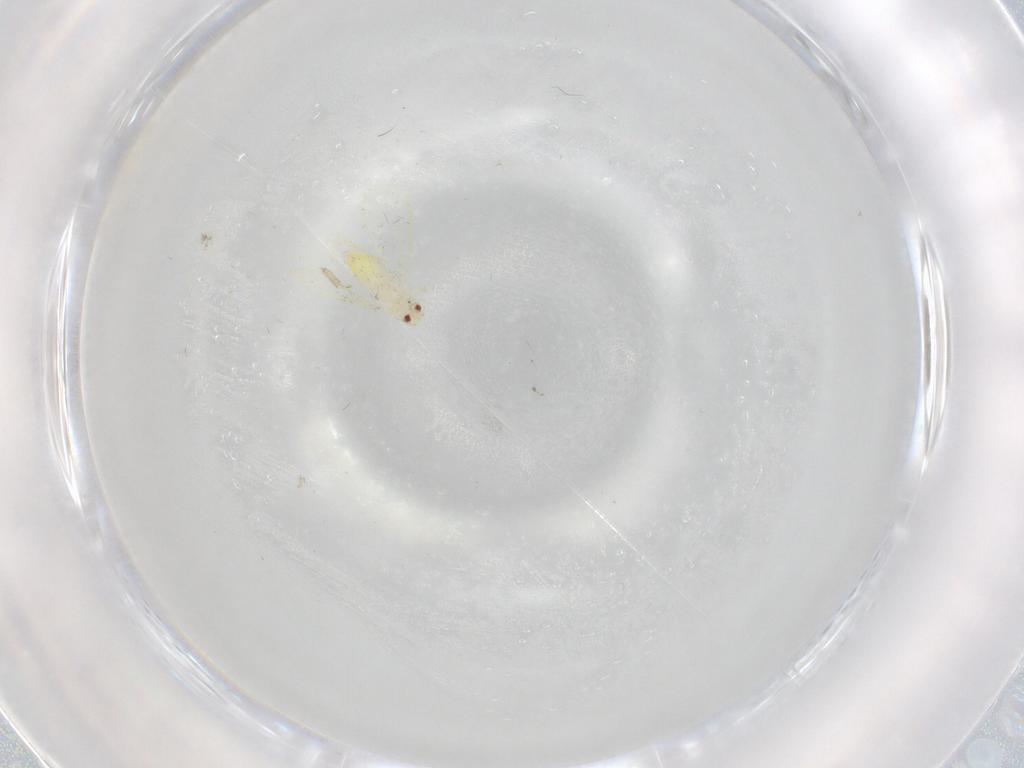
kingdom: Animalia
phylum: Arthropoda
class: Insecta
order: Hemiptera
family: Aleyrodidae
